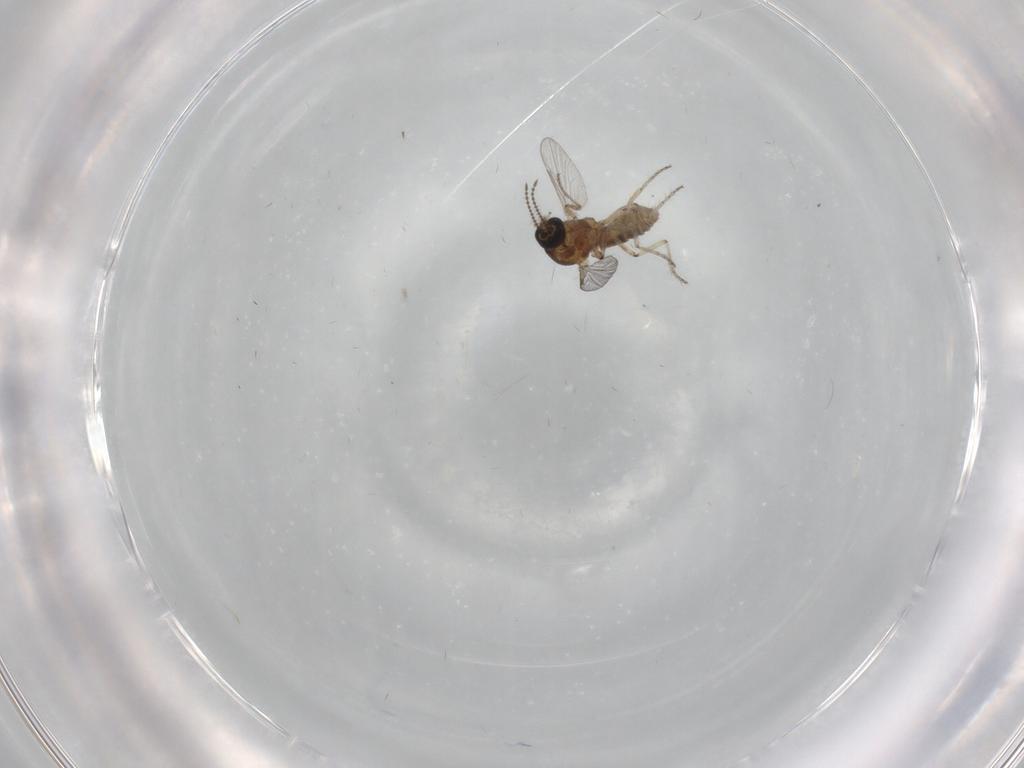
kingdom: Animalia
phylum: Arthropoda
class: Insecta
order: Diptera
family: Ceratopogonidae
